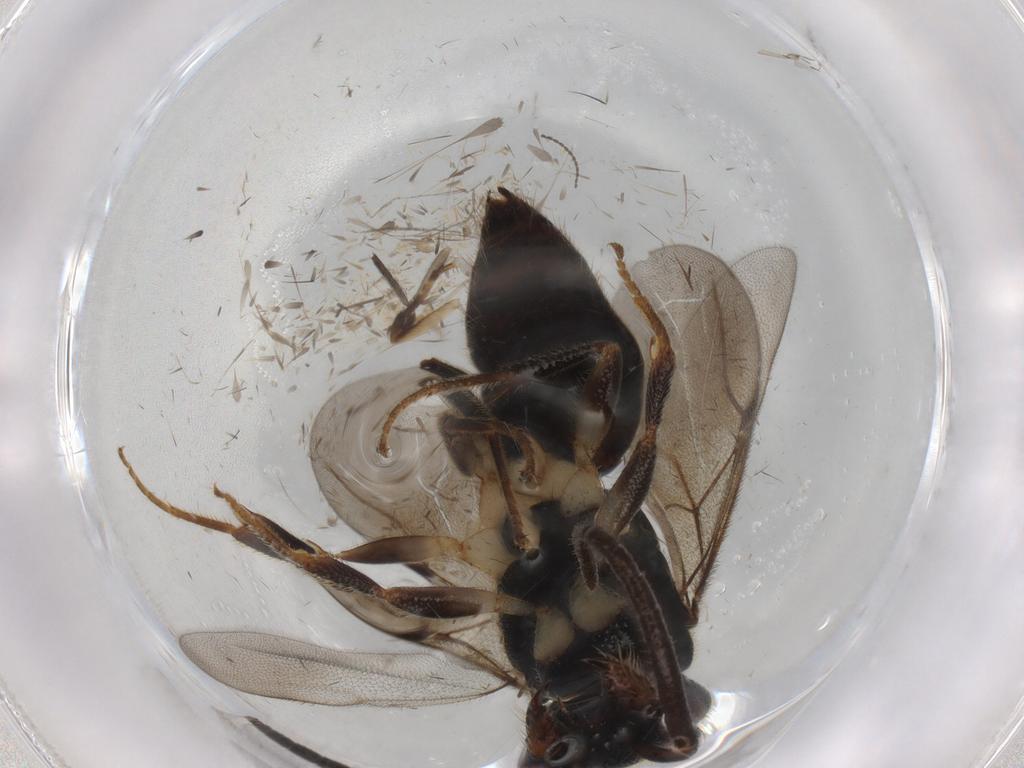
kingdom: Animalia
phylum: Arthropoda
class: Insecta
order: Hymenoptera
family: Bethylidae
